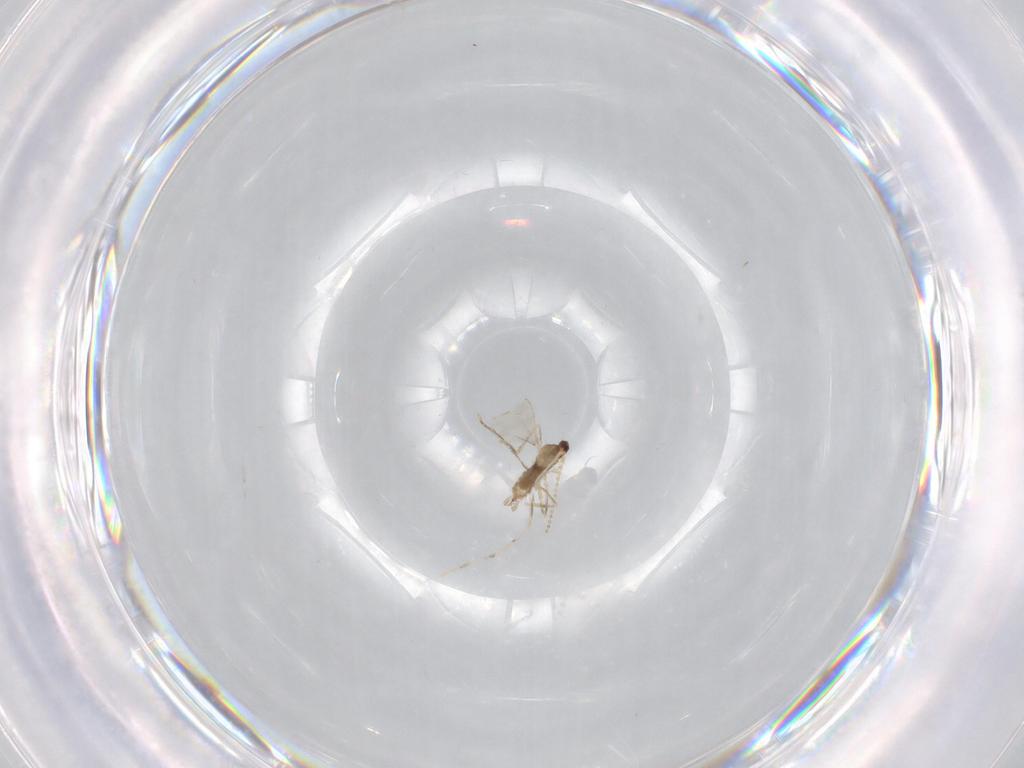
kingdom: Animalia
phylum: Arthropoda
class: Insecta
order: Diptera
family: Cecidomyiidae
